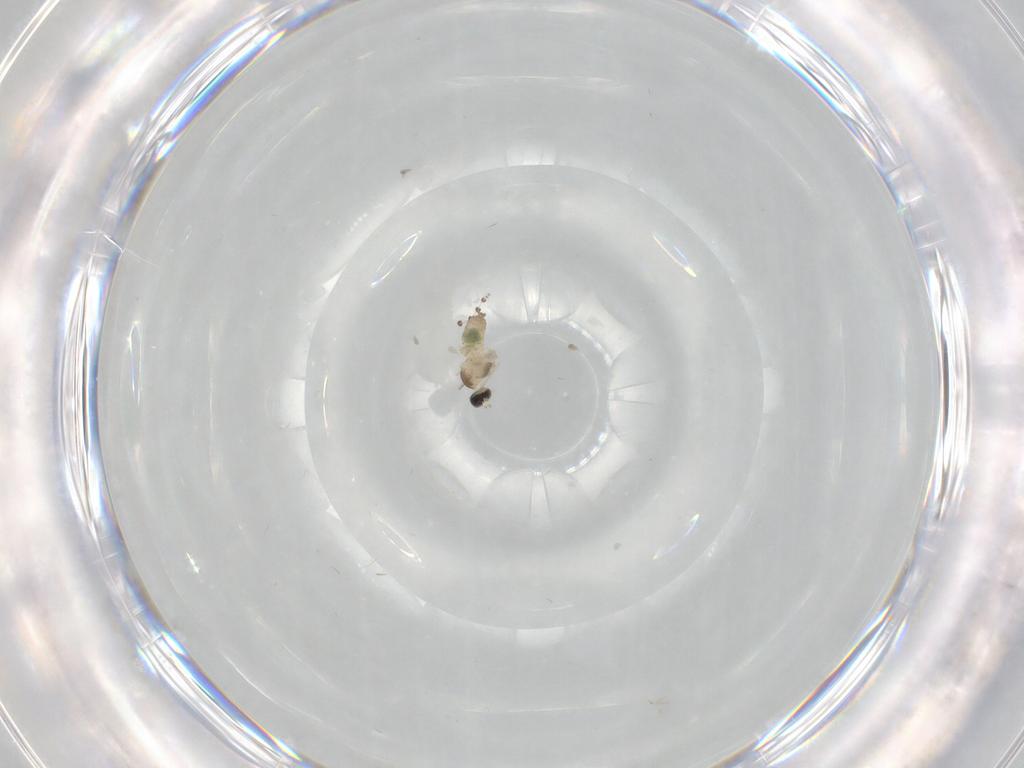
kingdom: Animalia
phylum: Arthropoda
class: Insecta
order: Diptera
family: Cecidomyiidae
